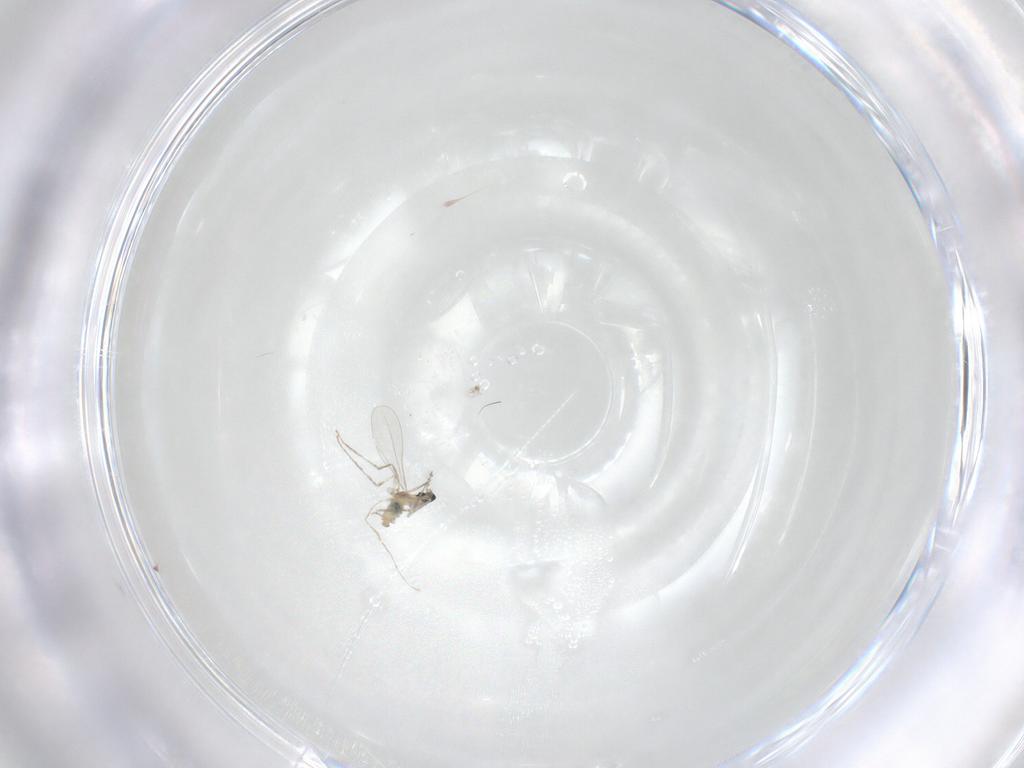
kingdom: Animalia
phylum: Arthropoda
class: Insecta
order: Diptera
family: Cecidomyiidae
